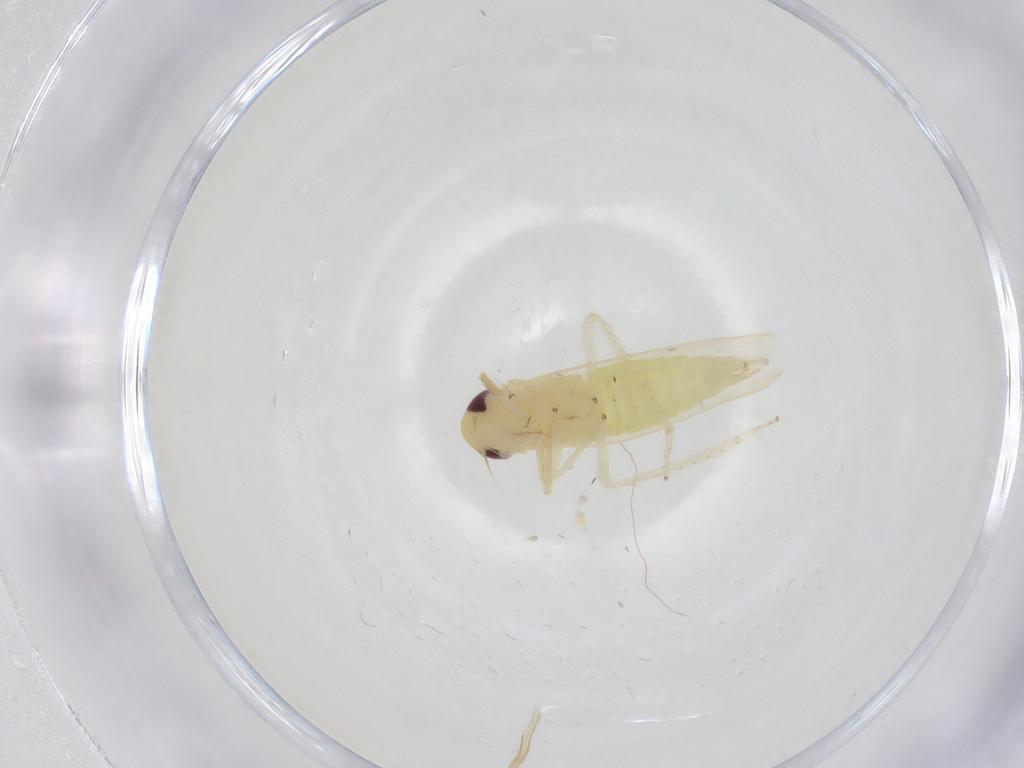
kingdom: Animalia
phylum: Arthropoda
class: Insecta
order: Hemiptera
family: Cicadellidae
